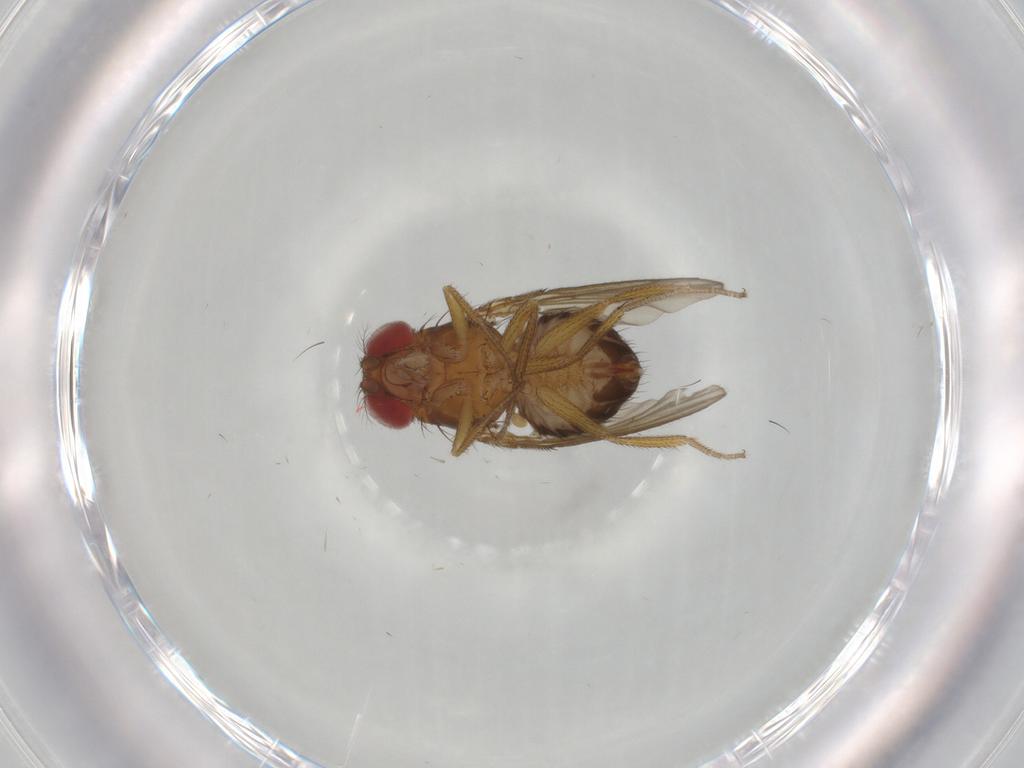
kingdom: Animalia
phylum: Arthropoda
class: Insecta
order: Diptera
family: Drosophilidae
